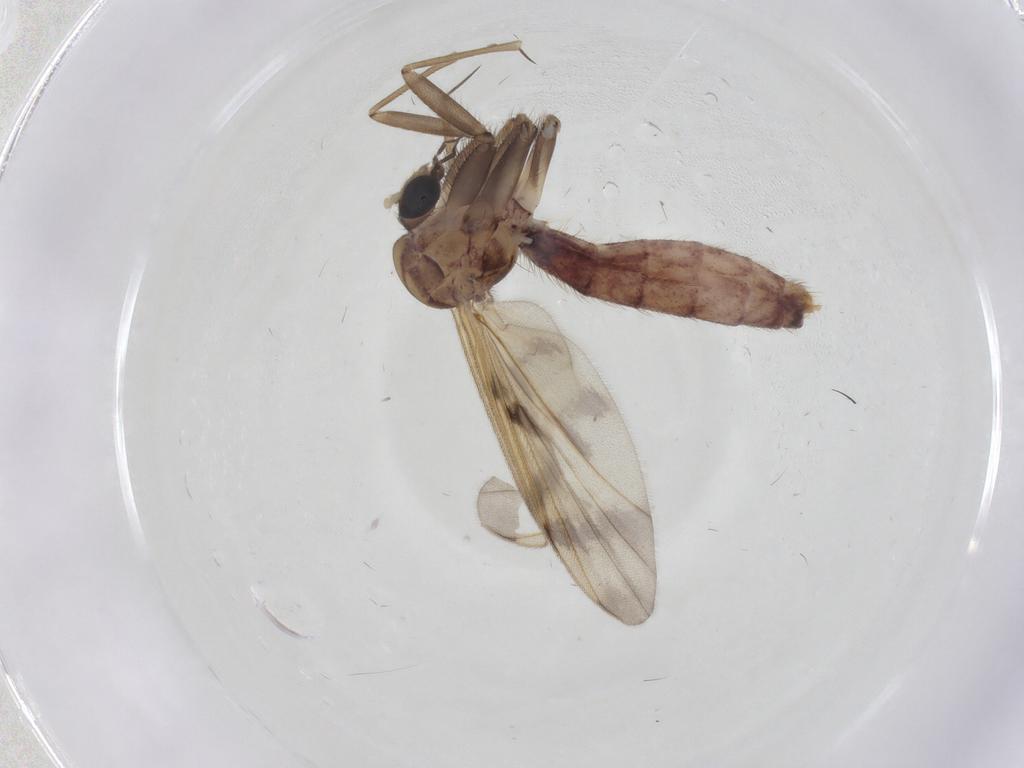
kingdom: Animalia
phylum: Arthropoda
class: Insecta
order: Diptera
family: Mycetophilidae
